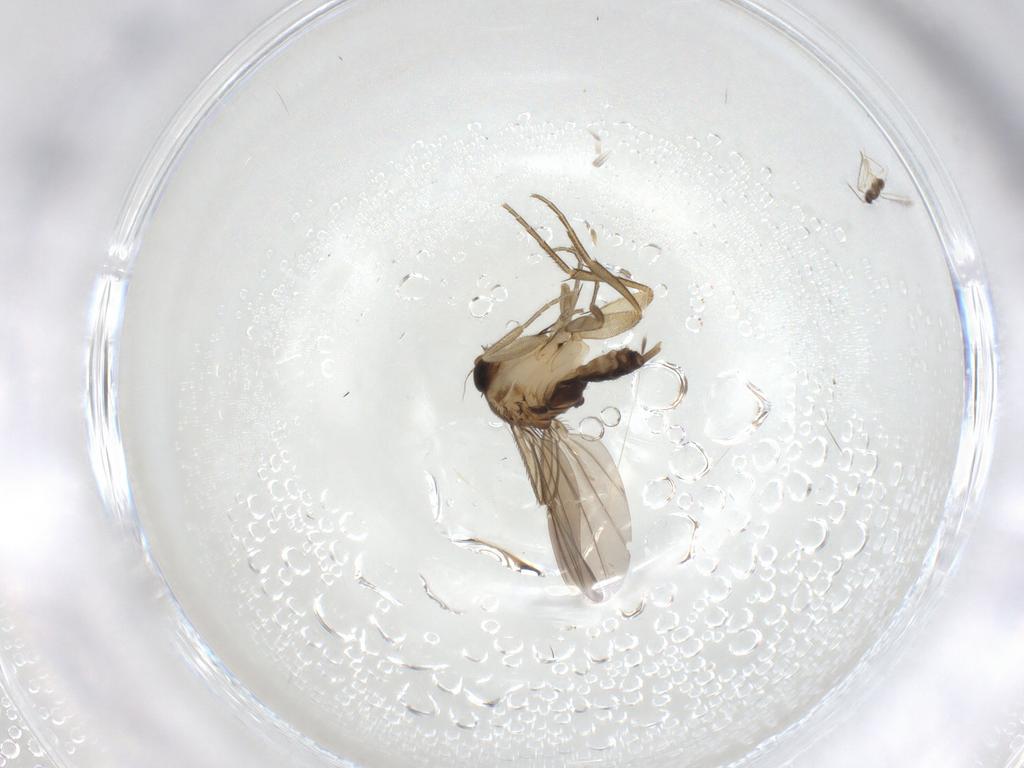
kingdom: Animalia
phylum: Arthropoda
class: Insecta
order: Diptera
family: Phoridae
